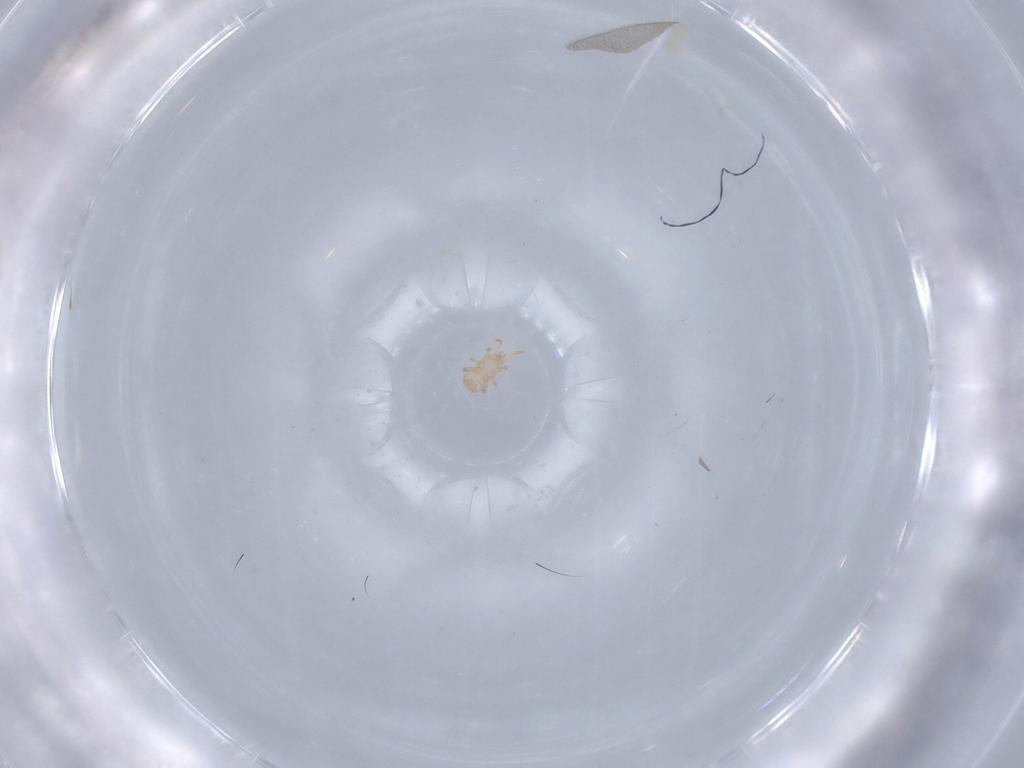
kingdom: Animalia
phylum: Arthropoda
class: Arachnida
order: Mesostigmata
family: Digamasellidae
